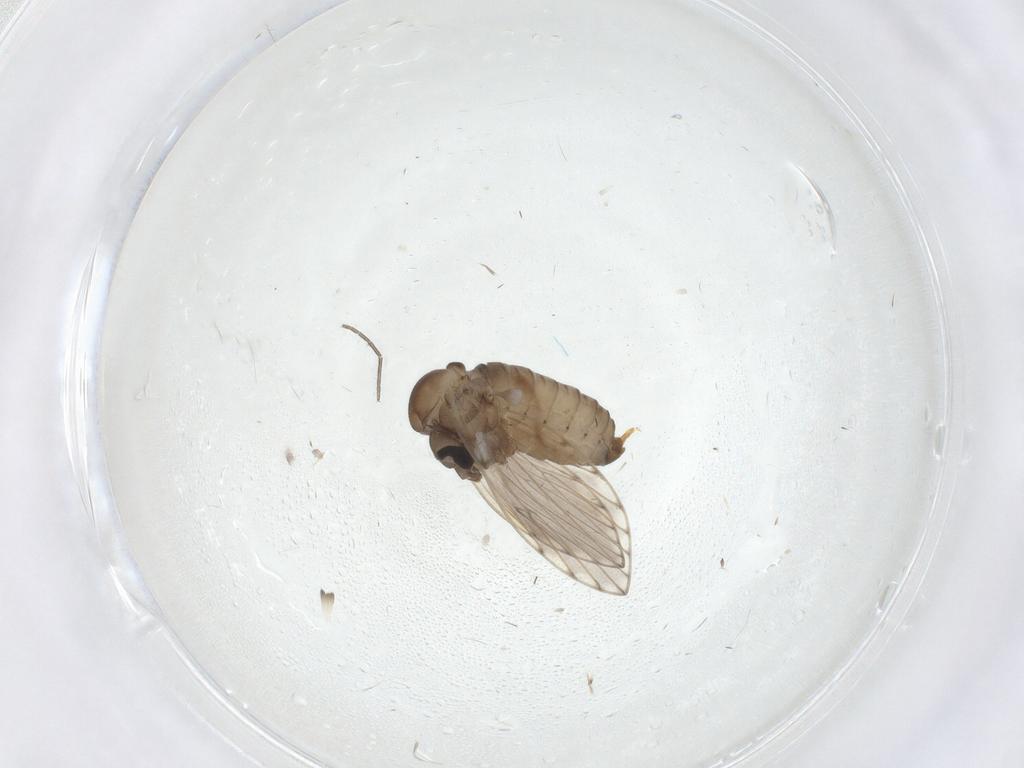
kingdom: Animalia
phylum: Arthropoda
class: Insecta
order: Diptera
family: Psychodidae
